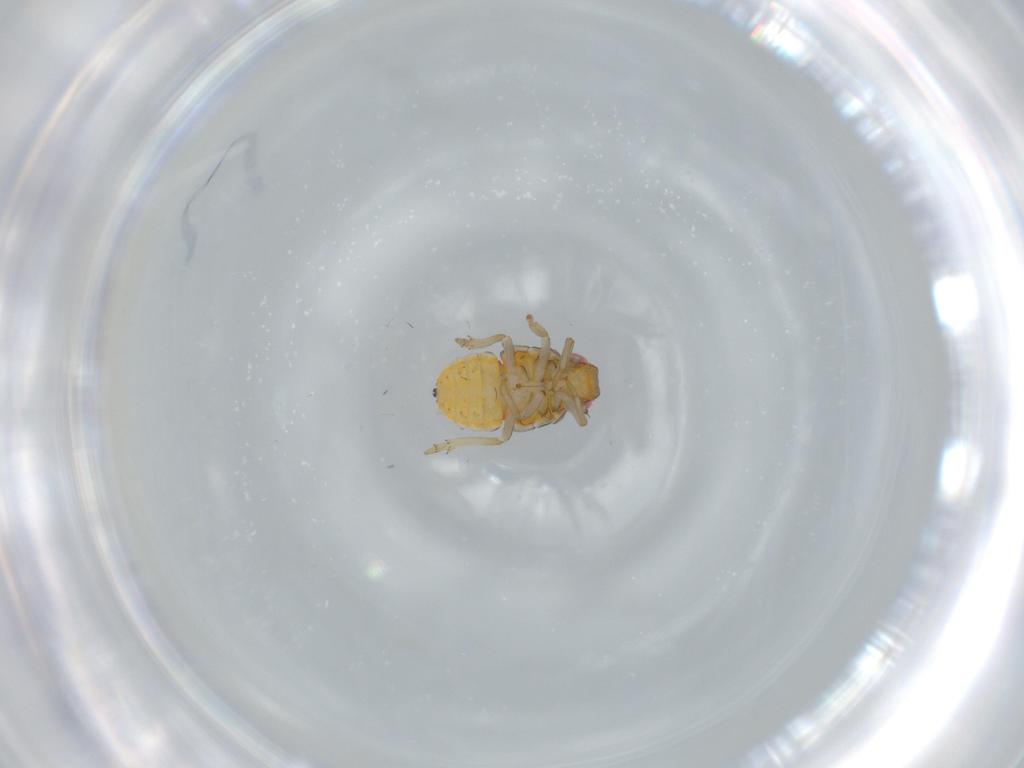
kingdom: Animalia
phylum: Arthropoda
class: Insecta
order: Hemiptera
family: Issidae
